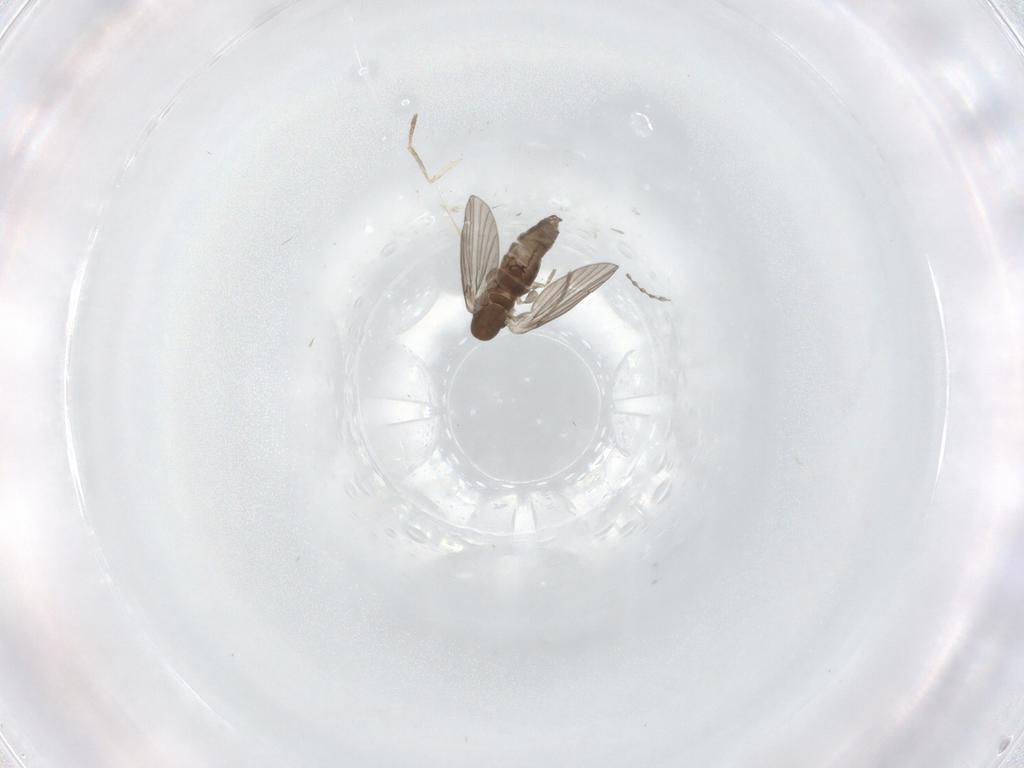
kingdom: Animalia
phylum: Arthropoda
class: Insecta
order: Diptera
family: Cecidomyiidae
